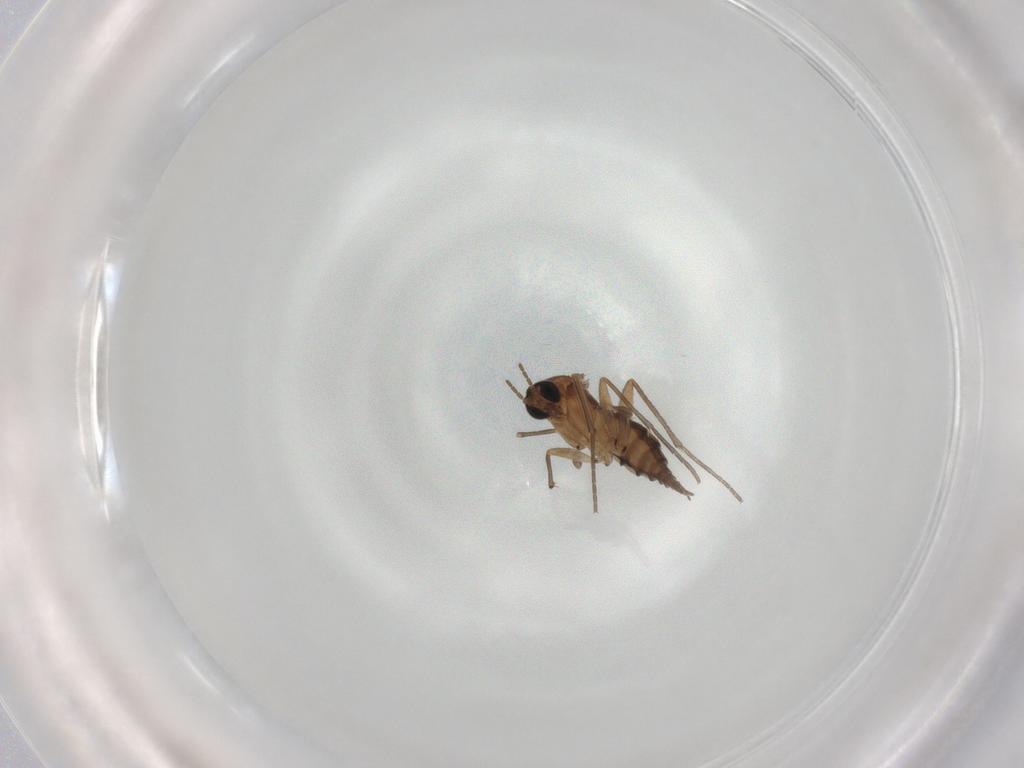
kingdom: Animalia
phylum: Arthropoda
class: Insecta
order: Diptera
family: Sciaridae
